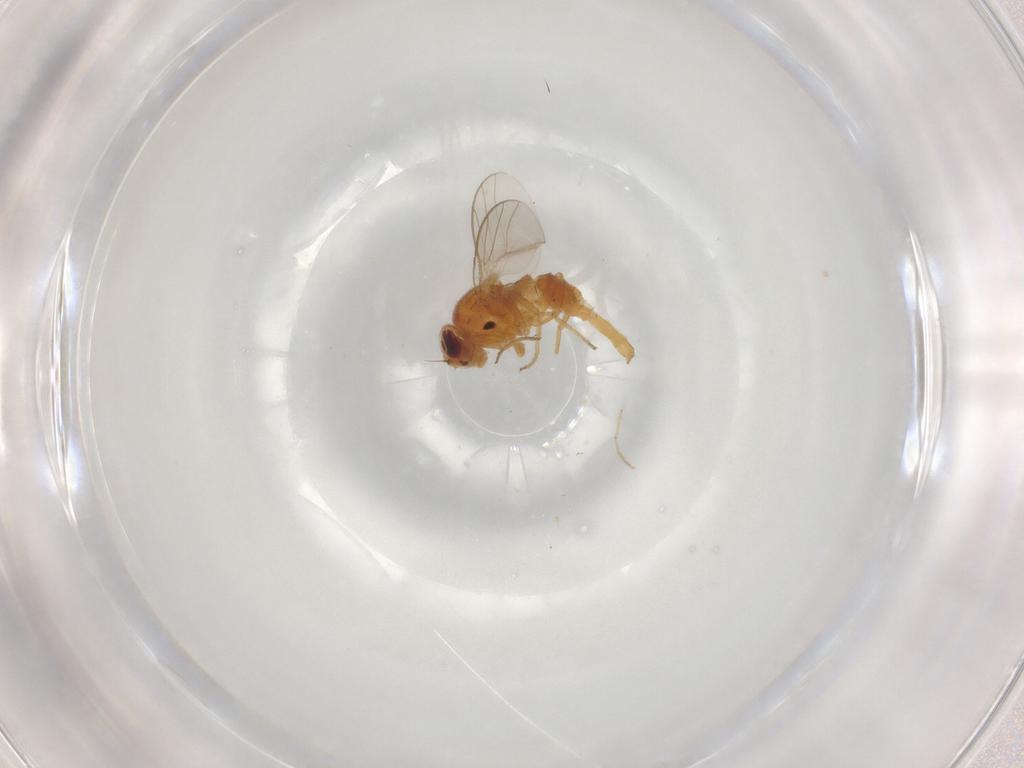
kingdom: Animalia
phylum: Arthropoda
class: Insecta
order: Diptera
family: Chloropidae
